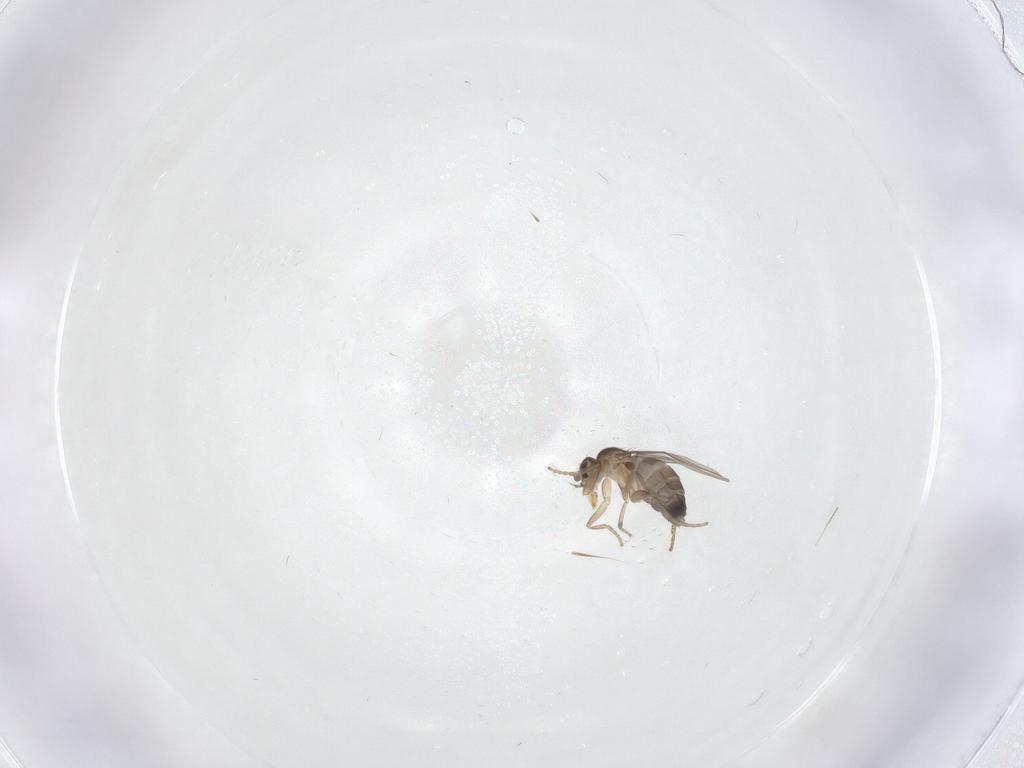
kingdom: Animalia
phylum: Arthropoda
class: Insecta
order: Diptera
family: Ceratopogonidae
